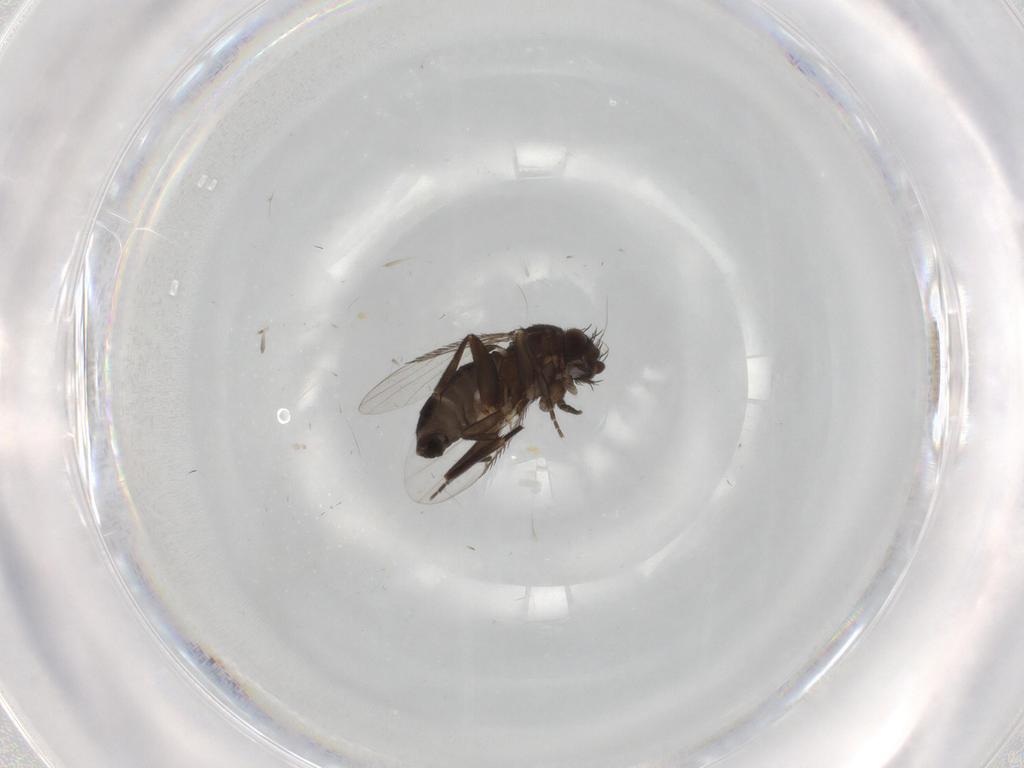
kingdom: Animalia
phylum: Arthropoda
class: Insecta
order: Diptera
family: Phoridae
